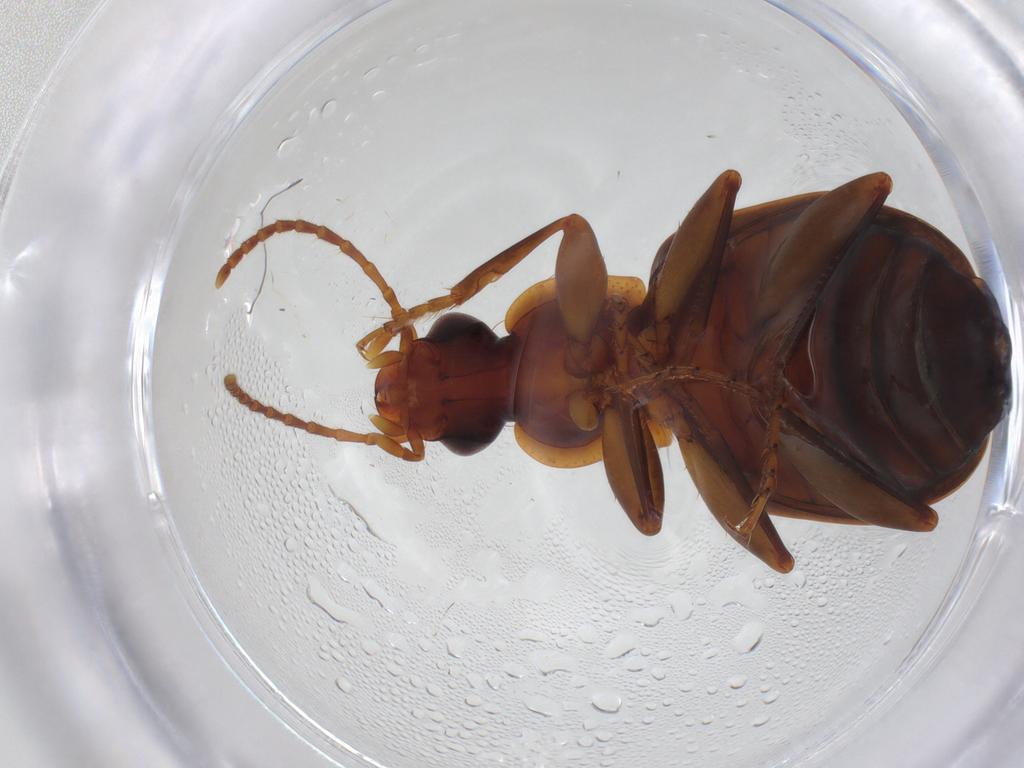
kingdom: Animalia
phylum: Arthropoda
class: Insecta
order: Coleoptera
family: Carabidae
